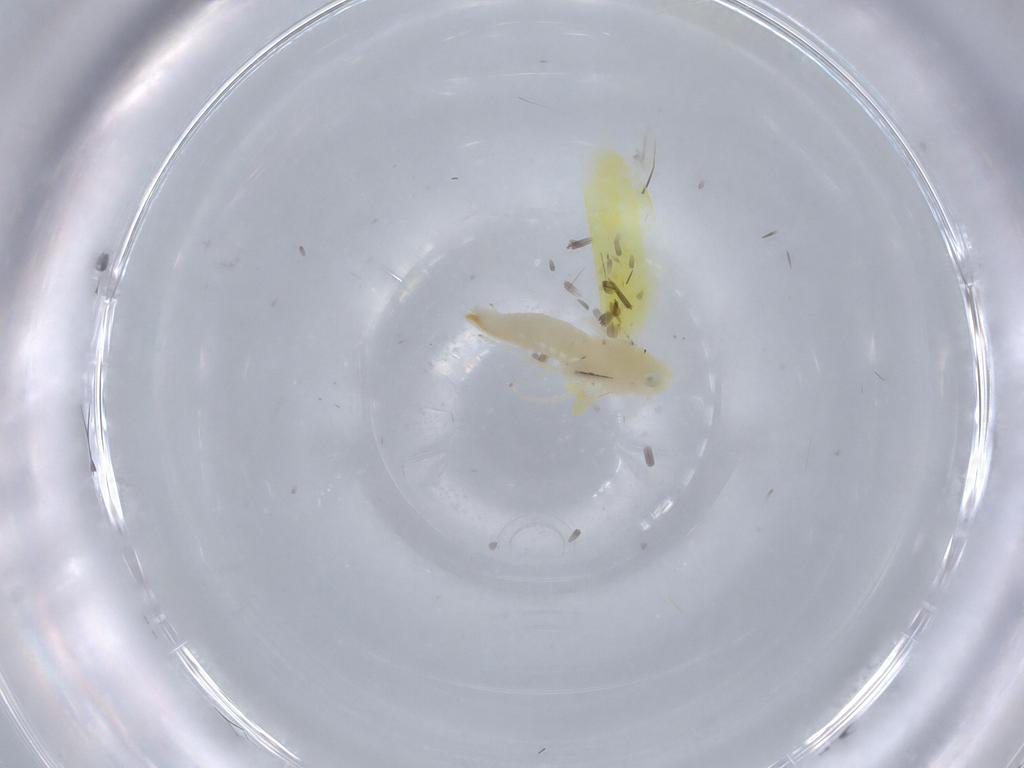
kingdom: Animalia
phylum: Arthropoda
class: Insecta
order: Hemiptera
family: Cicadellidae
